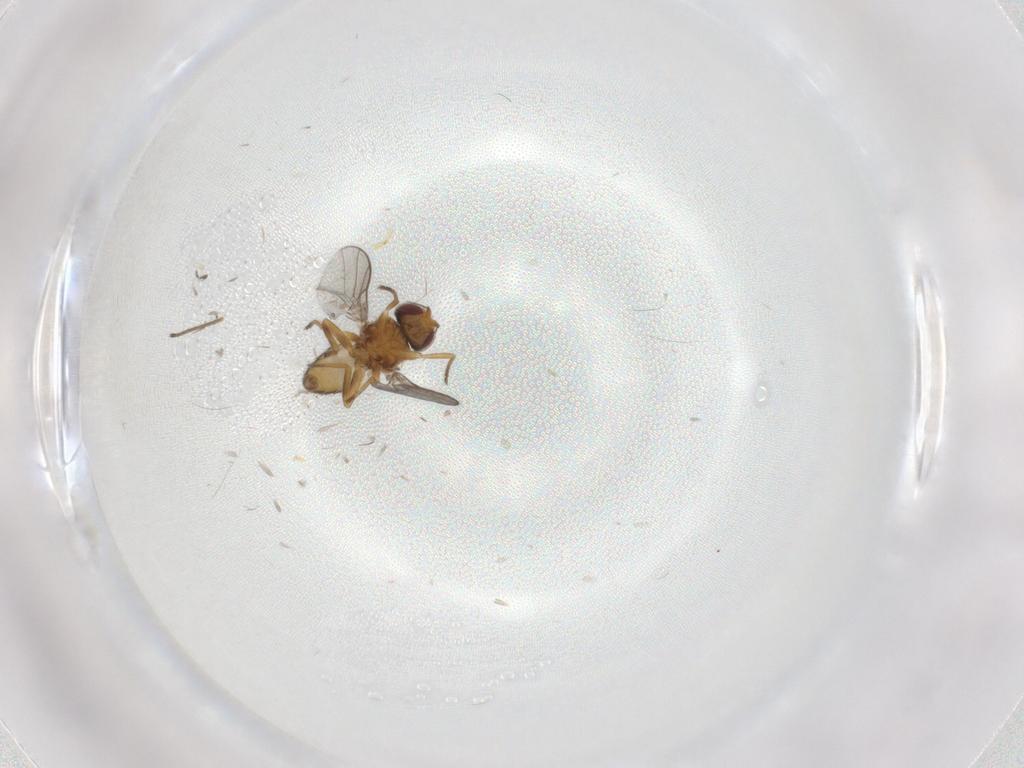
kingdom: Animalia
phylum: Arthropoda
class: Insecta
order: Diptera
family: Chloropidae
